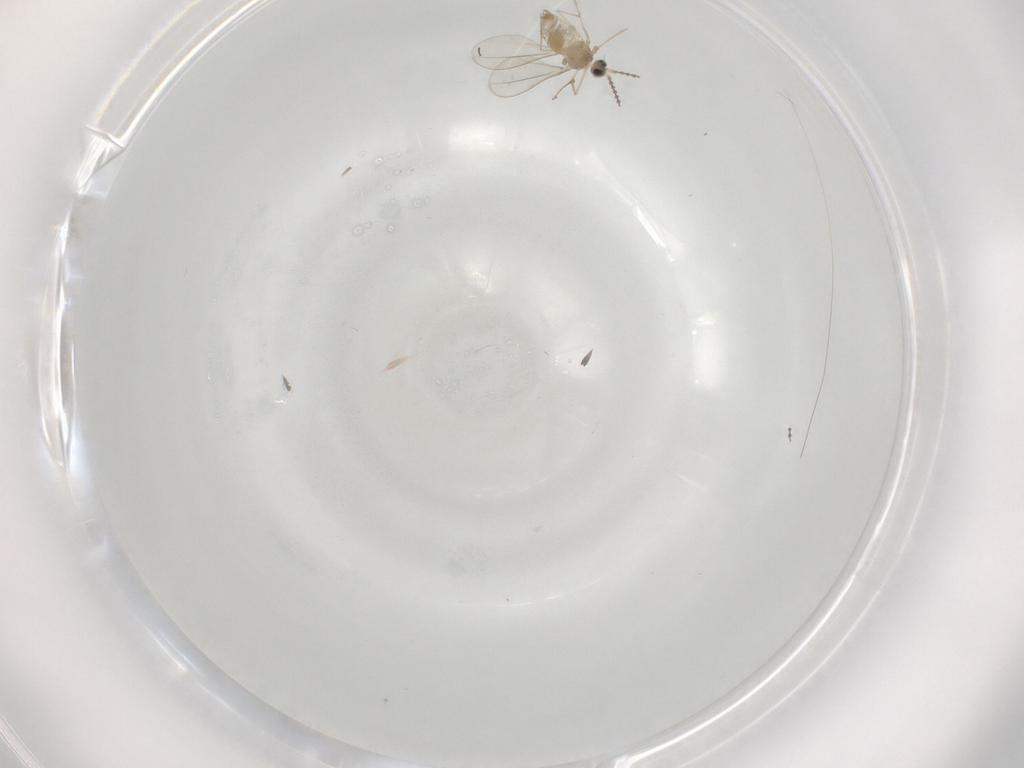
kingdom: Animalia
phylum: Arthropoda
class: Insecta
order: Diptera
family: Cecidomyiidae
